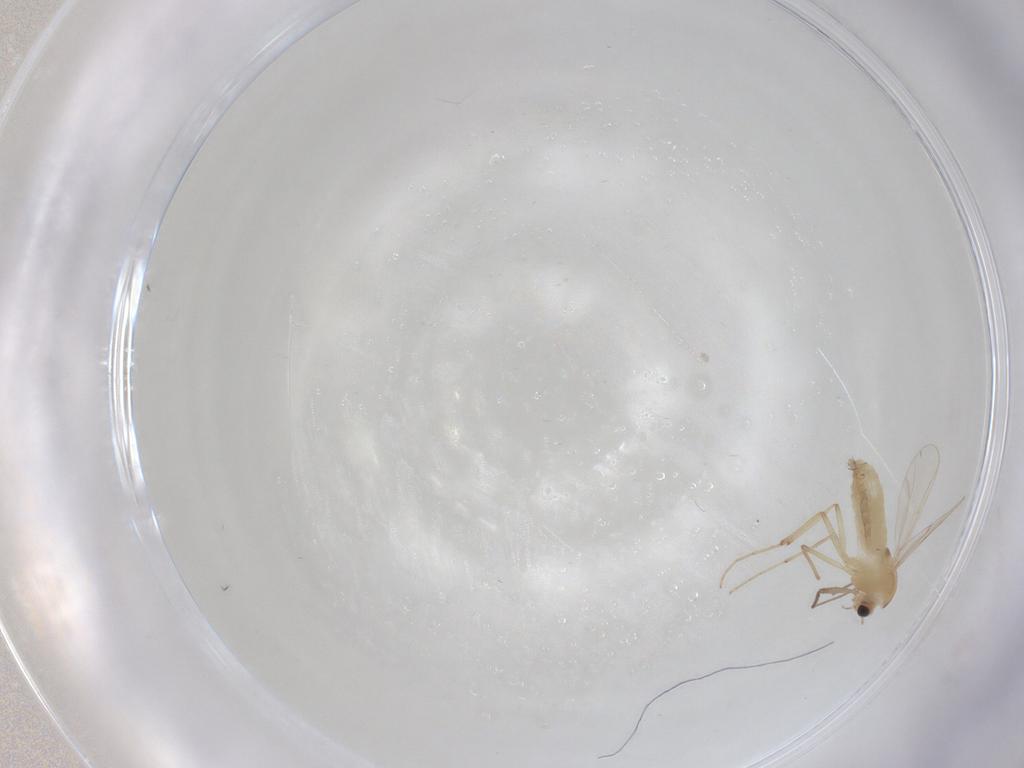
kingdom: Animalia
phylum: Arthropoda
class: Insecta
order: Diptera
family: Chironomidae
